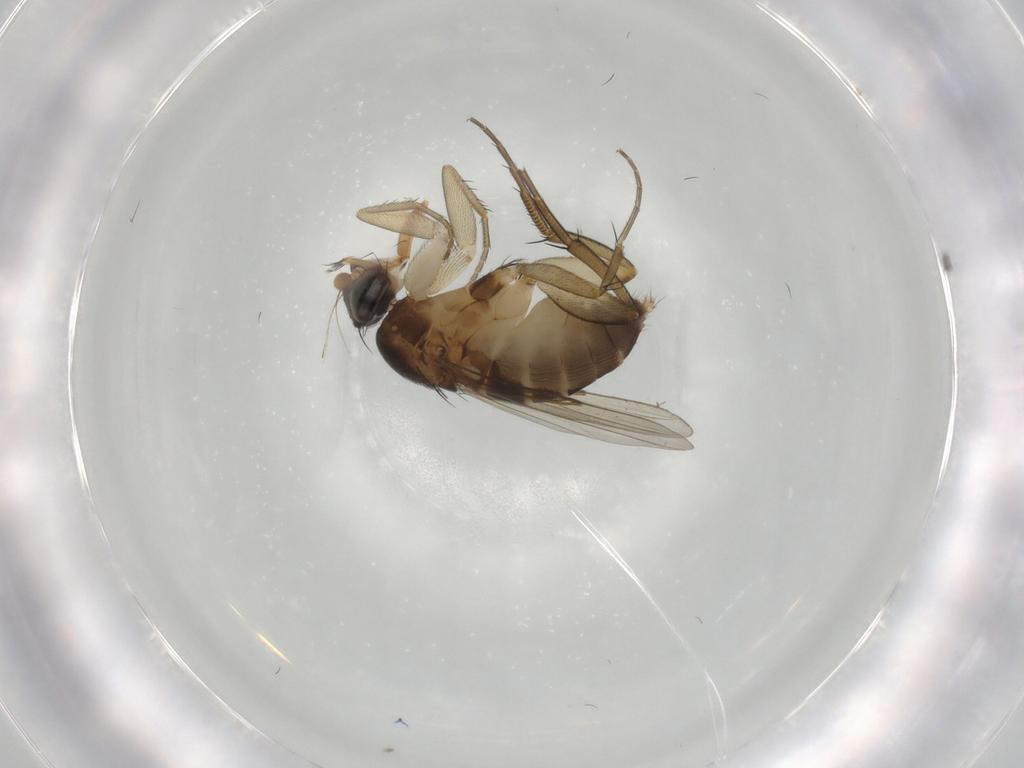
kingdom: Animalia
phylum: Arthropoda
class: Insecta
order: Diptera
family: Phoridae
